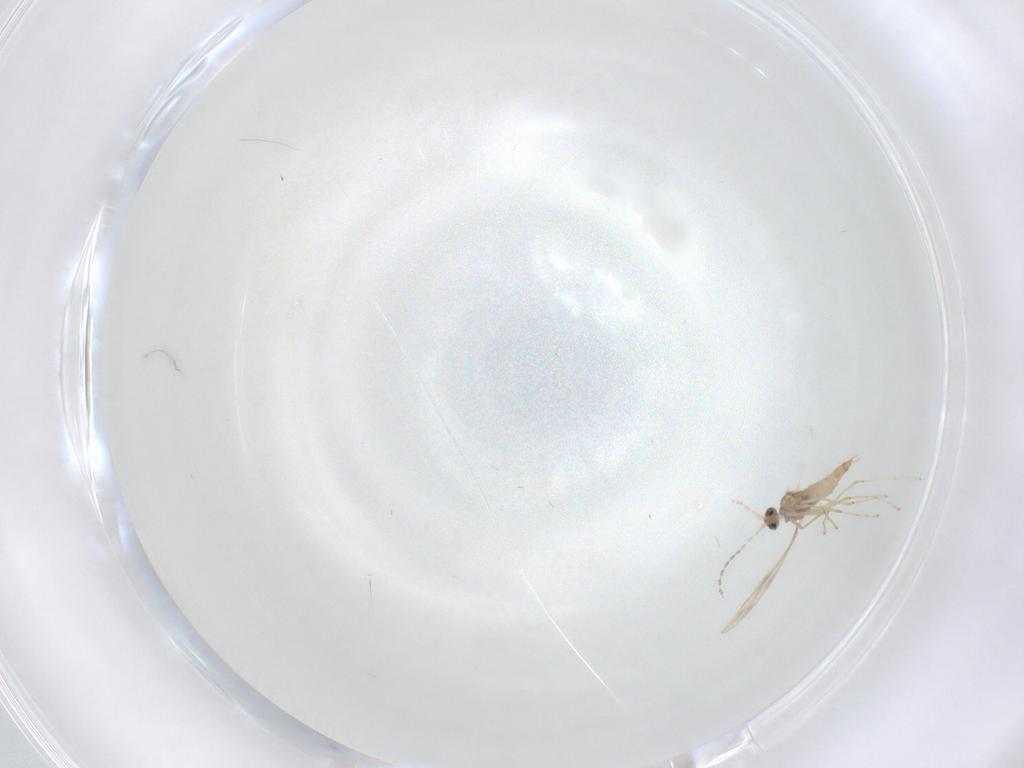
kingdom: Animalia
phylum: Arthropoda
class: Insecta
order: Diptera
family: Cecidomyiidae
